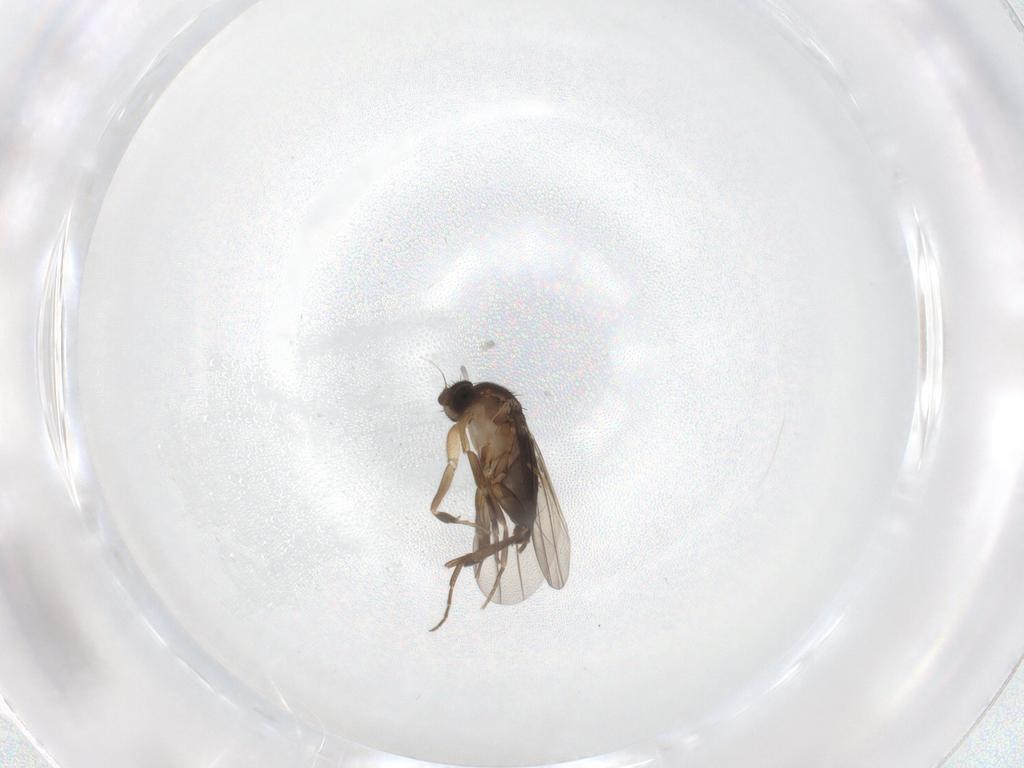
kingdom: Animalia
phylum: Arthropoda
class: Insecta
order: Diptera
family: Phoridae
